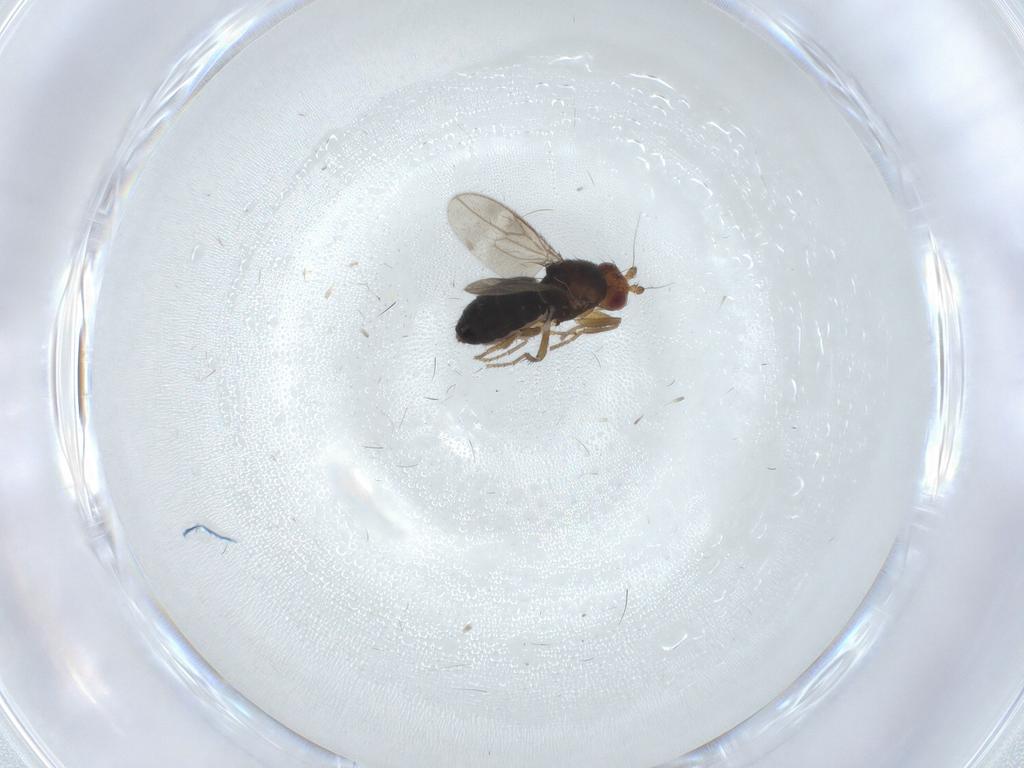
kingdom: Animalia
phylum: Arthropoda
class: Insecta
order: Diptera
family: Sphaeroceridae
